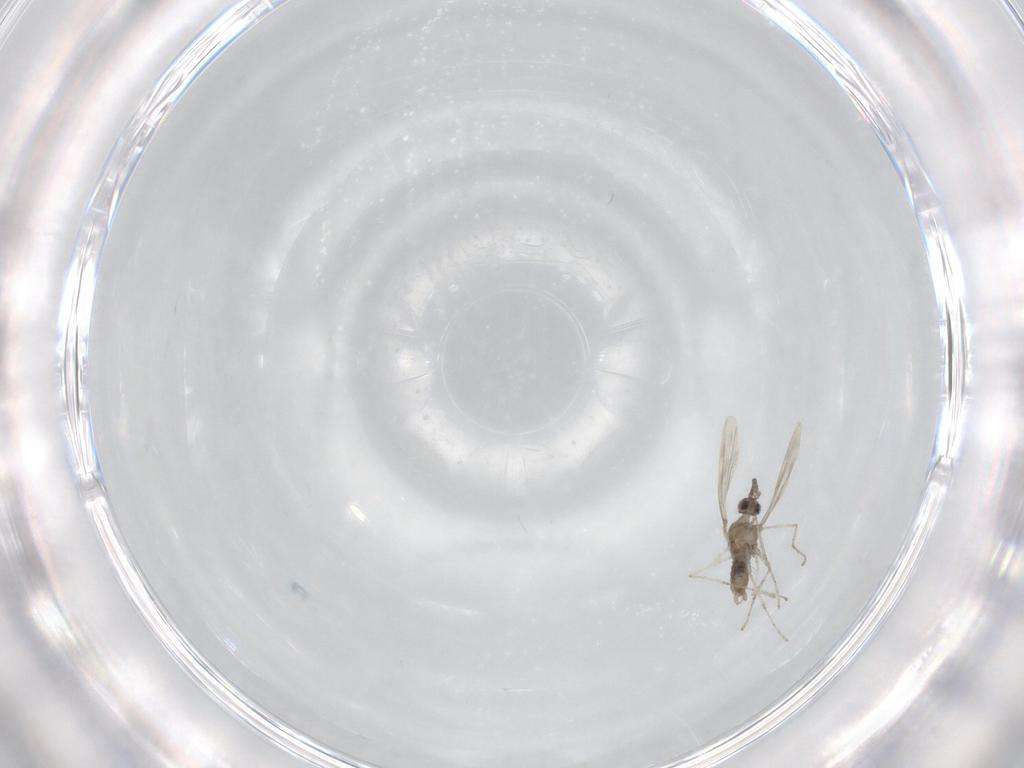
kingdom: Animalia
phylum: Arthropoda
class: Insecta
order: Diptera
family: Cecidomyiidae
